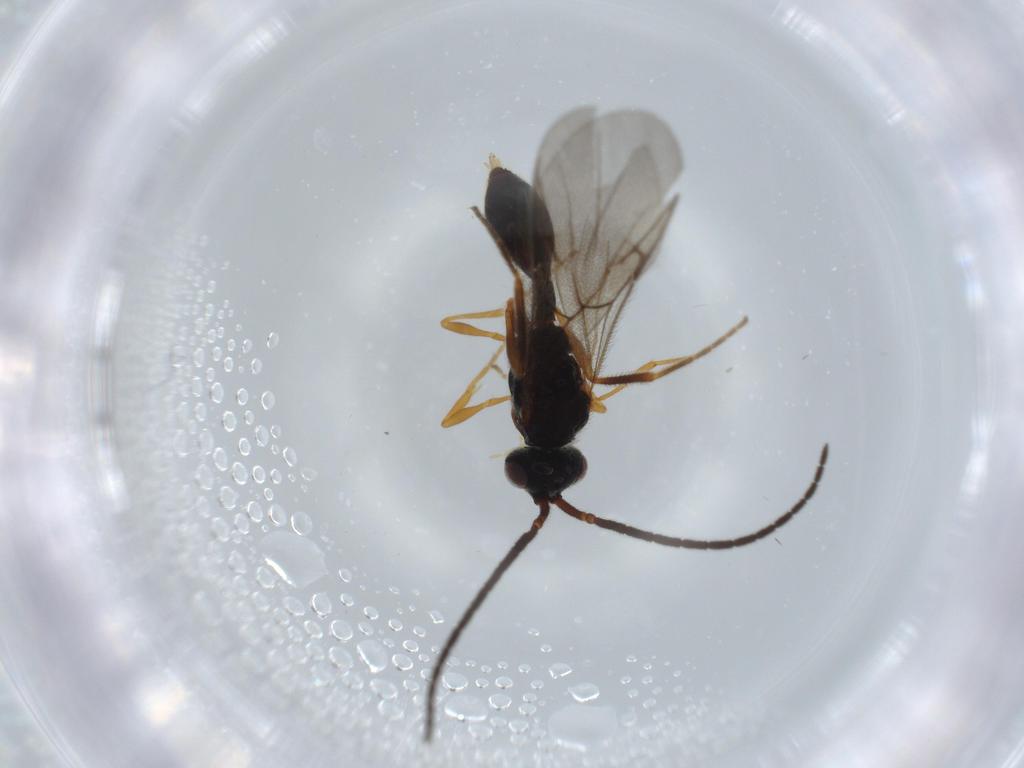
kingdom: Animalia
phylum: Arthropoda
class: Insecta
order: Hymenoptera
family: Diapriidae
